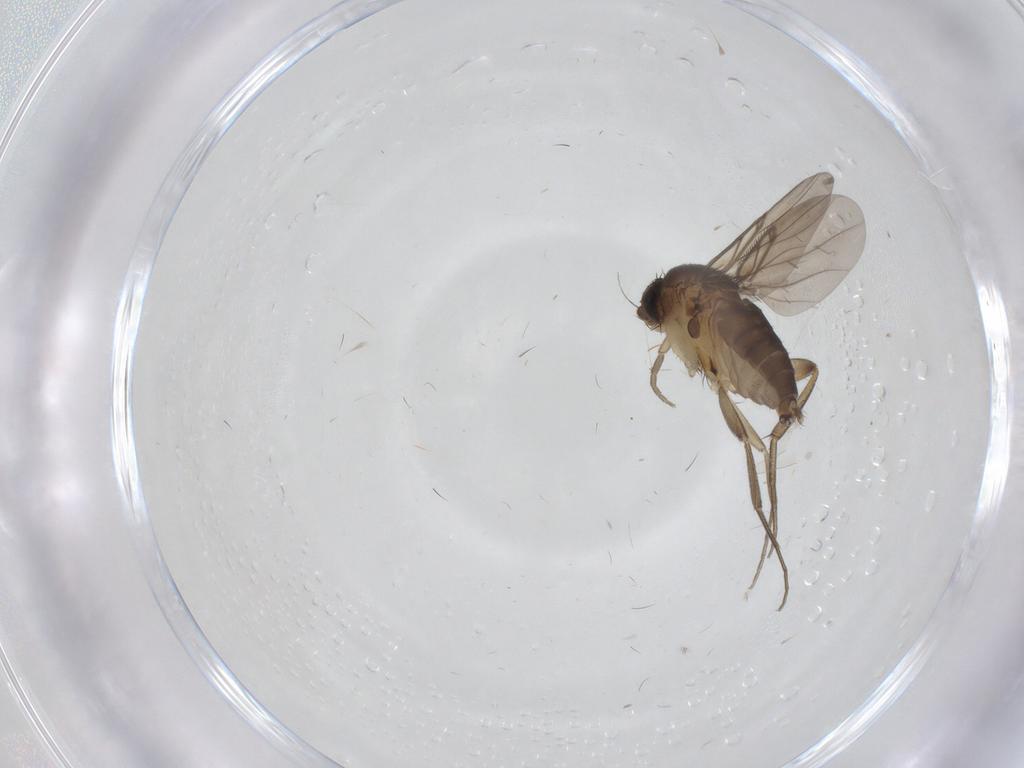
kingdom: Animalia
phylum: Arthropoda
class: Insecta
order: Diptera
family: Phoridae
